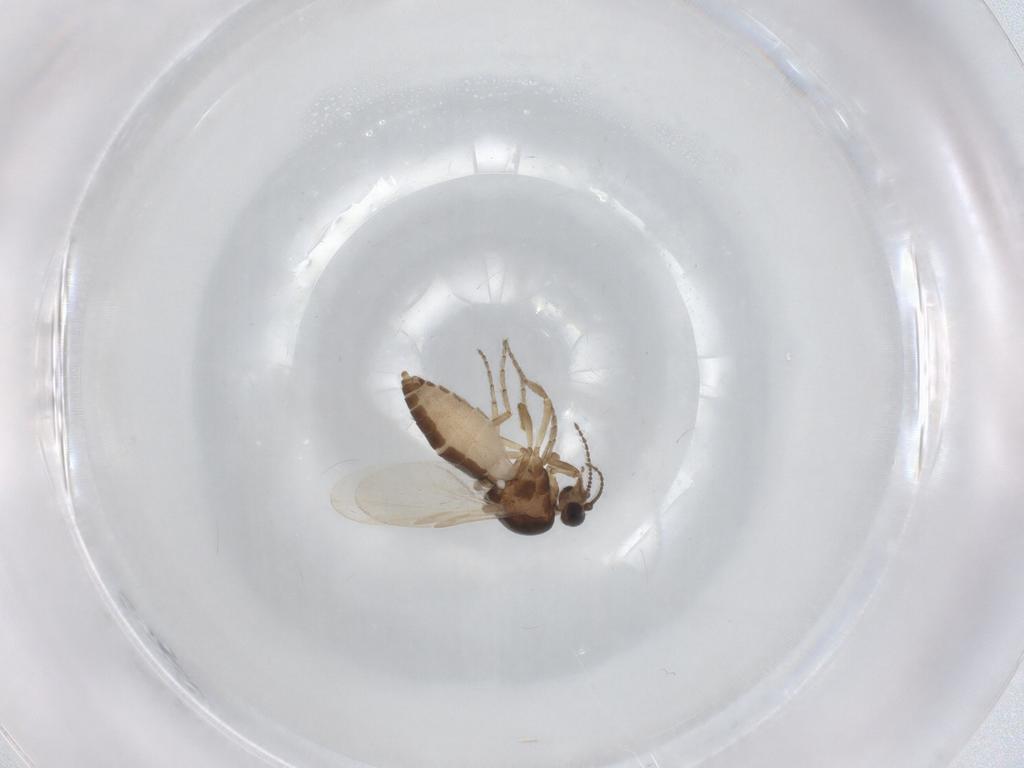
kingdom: Animalia
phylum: Arthropoda
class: Insecta
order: Diptera
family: Ceratopogonidae
